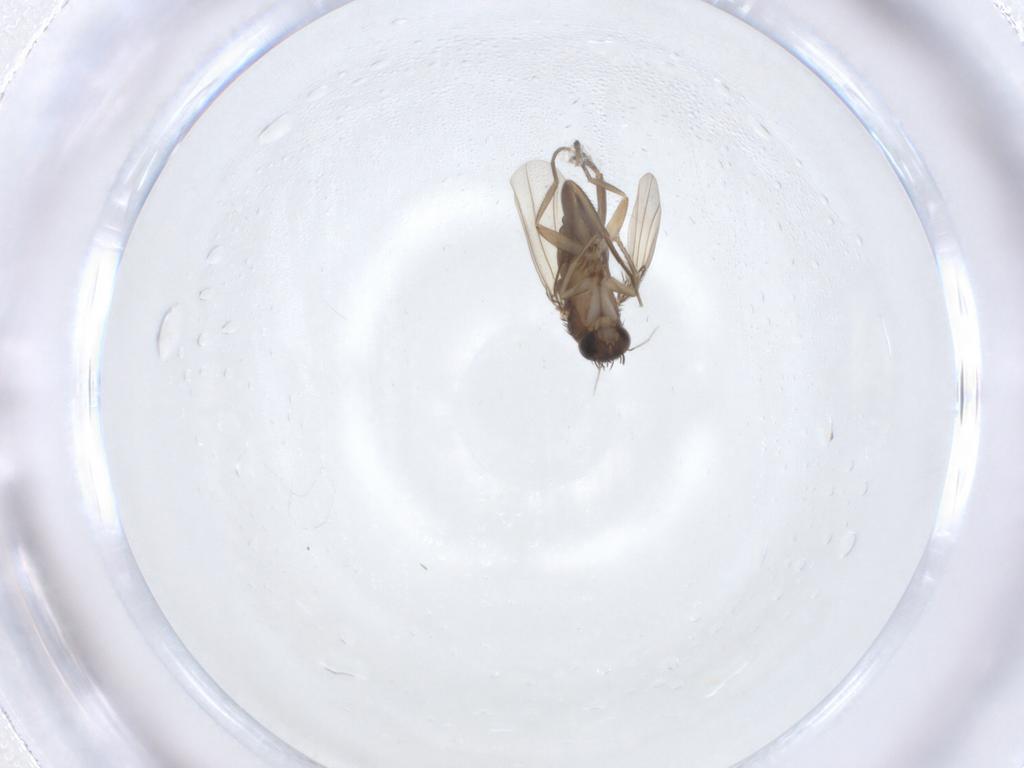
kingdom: Animalia
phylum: Arthropoda
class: Insecta
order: Diptera
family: Phoridae
